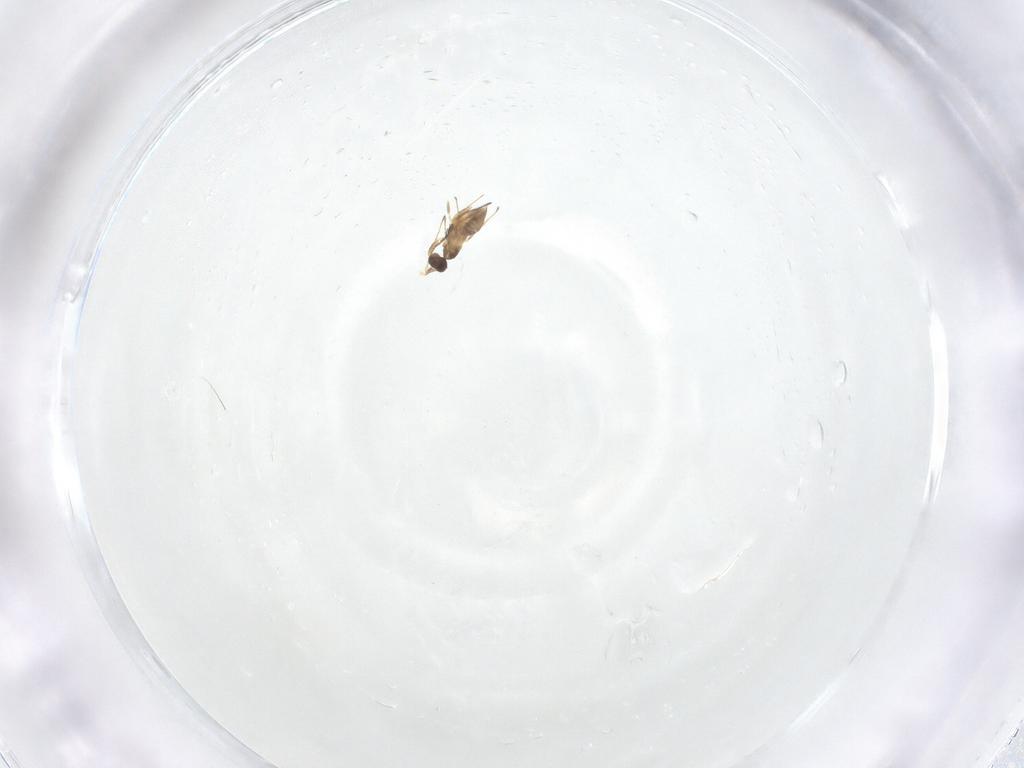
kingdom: Animalia
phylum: Arthropoda
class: Insecta
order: Hymenoptera
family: Mymaridae
